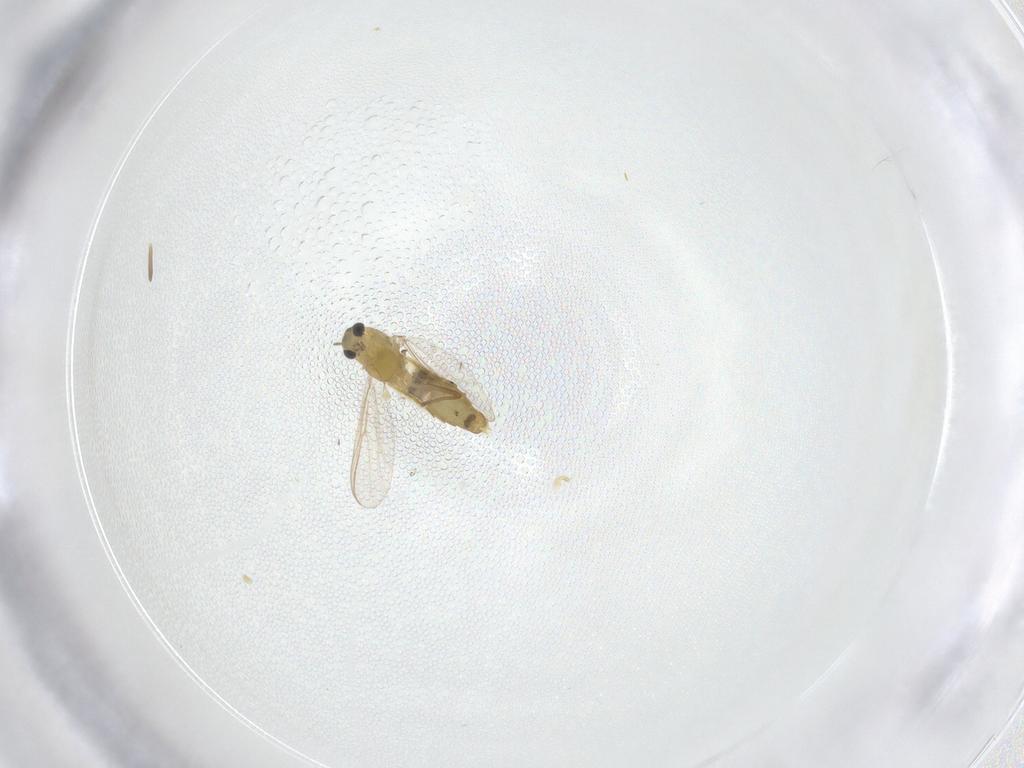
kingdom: Animalia
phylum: Arthropoda
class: Insecta
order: Diptera
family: Chironomidae
